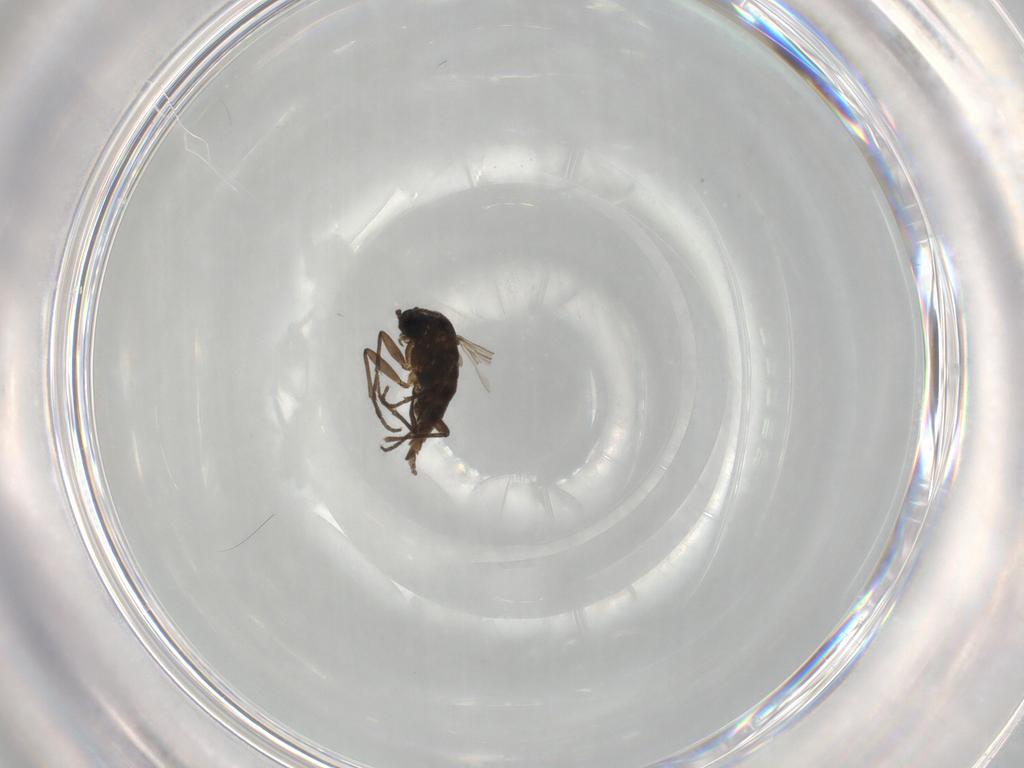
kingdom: Animalia
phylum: Arthropoda
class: Insecta
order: Diptera
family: Sciaridae
